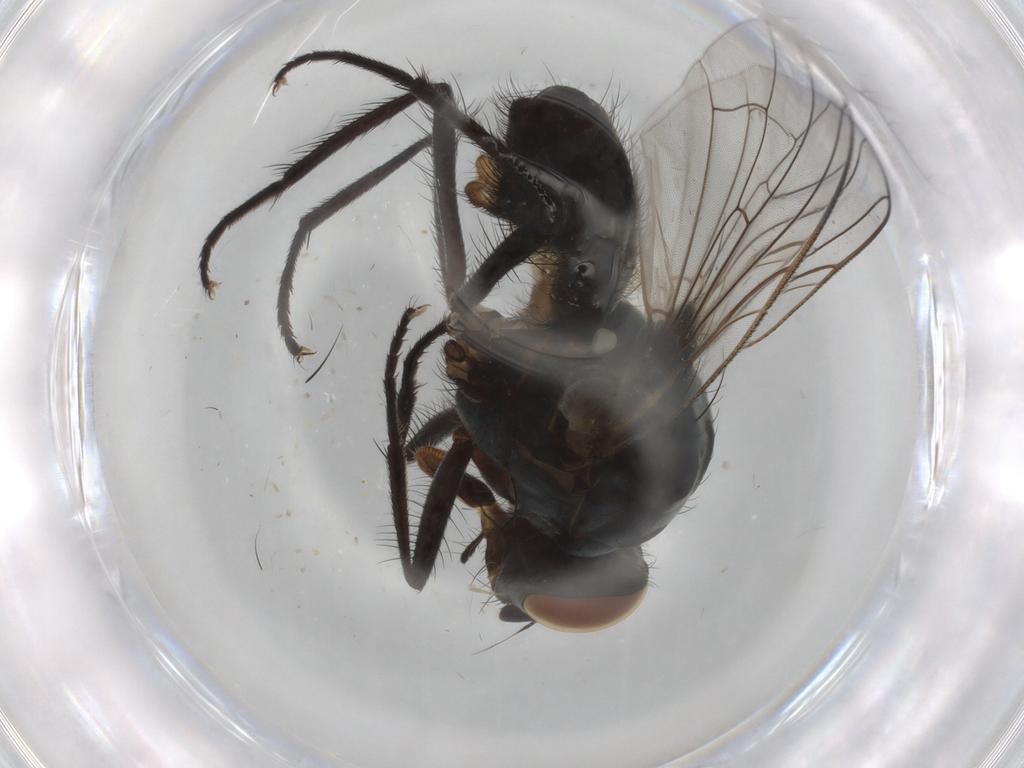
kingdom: Animalia
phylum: Arthropoda
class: Insecta
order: Diptera
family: Anthomyiidae
